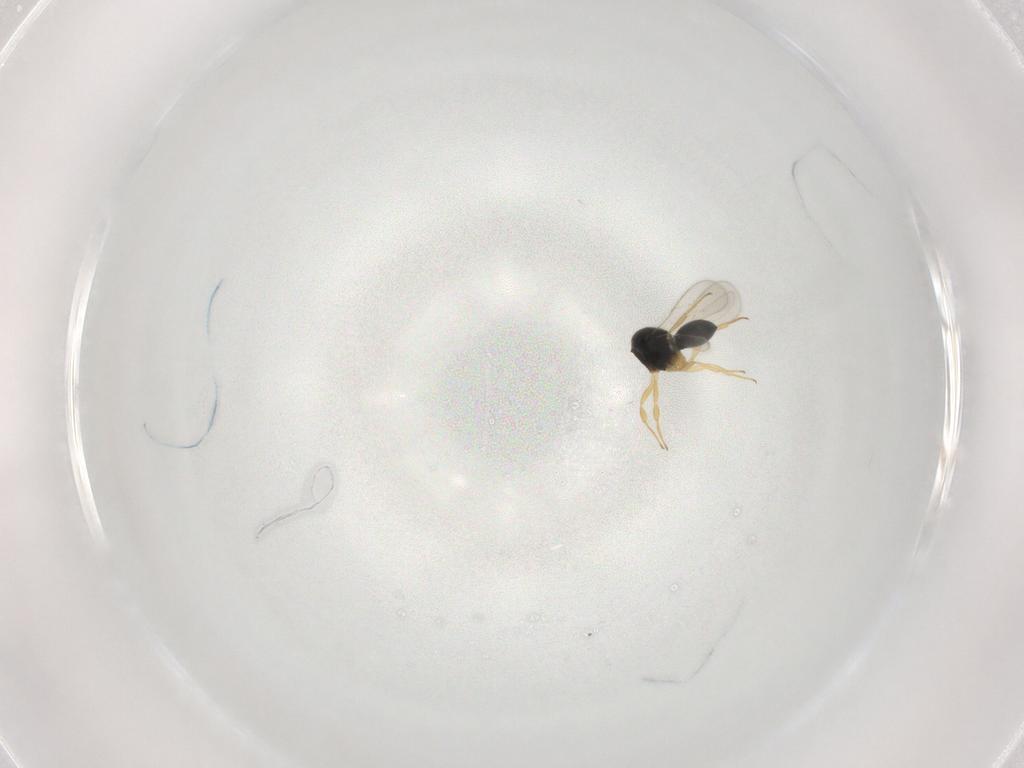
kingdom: Animalia
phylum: Arthropoda
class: Insecta
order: Hymenoptera
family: Scelionidae
